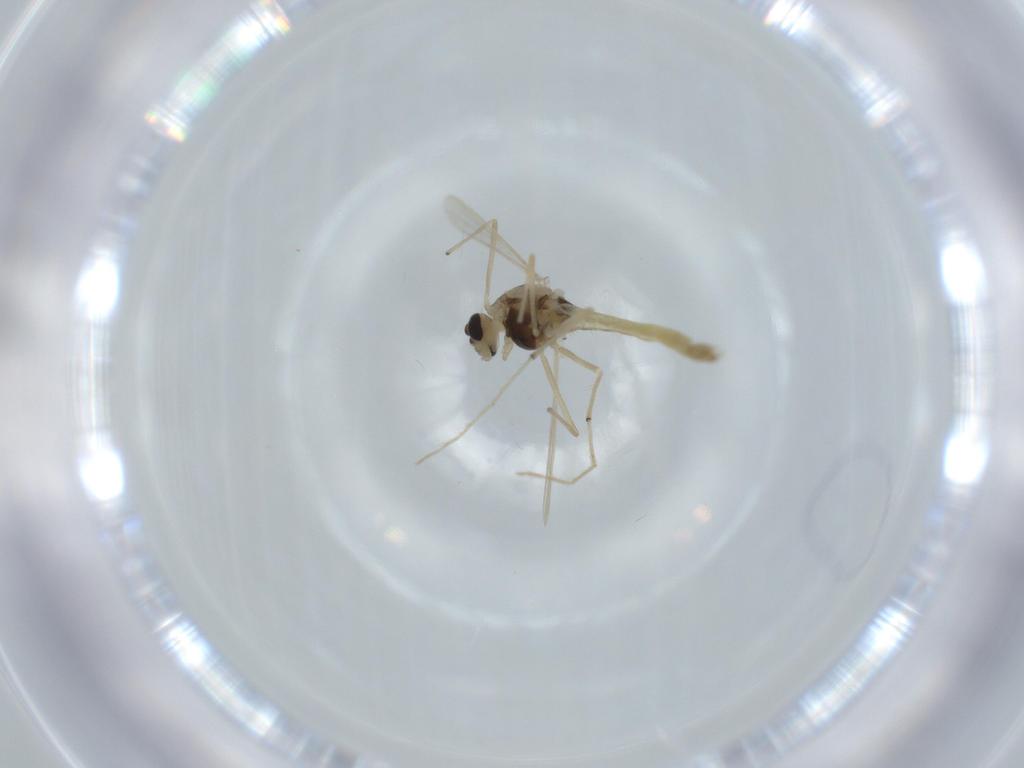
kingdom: Animalia
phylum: Arthropoda
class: Insecta
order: Diptera
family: Chironomidae
